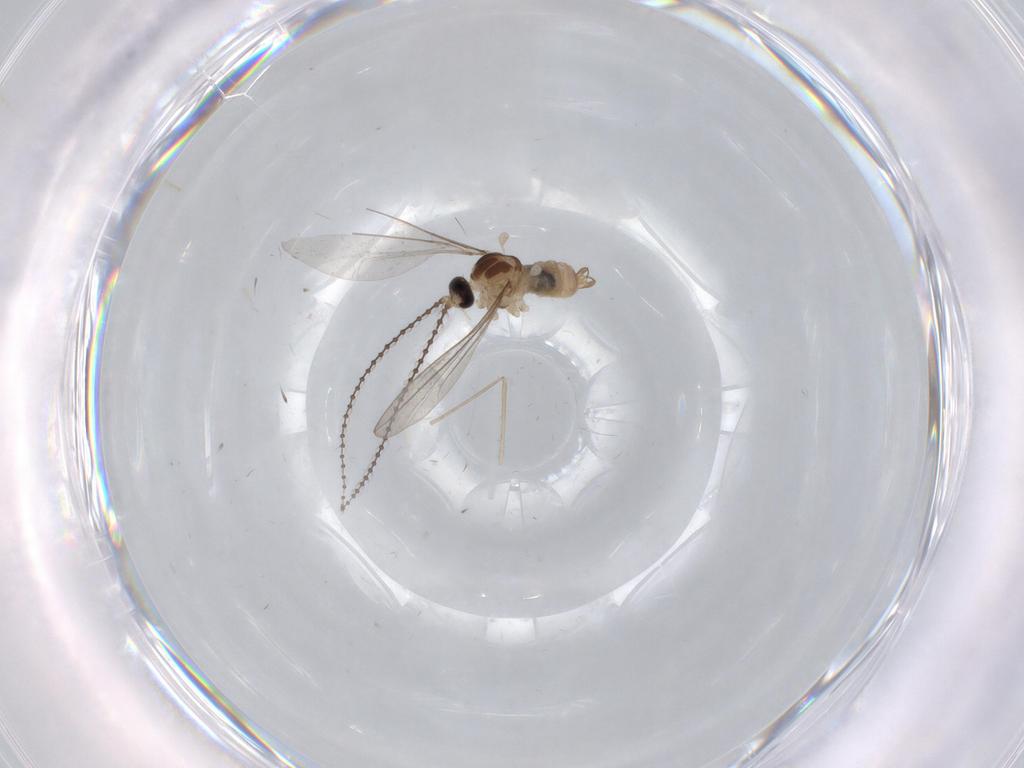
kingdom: Animalia
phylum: Arthropoda
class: Insecta
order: Diptera
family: Cecidomyiidae
